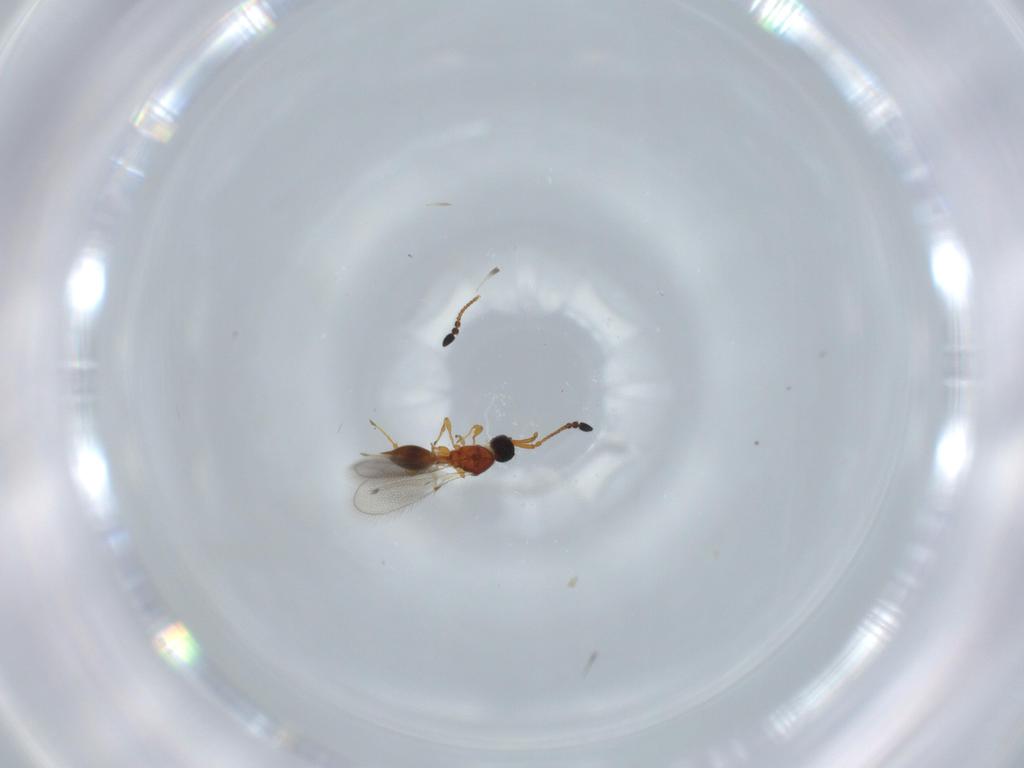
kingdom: Animalia
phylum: Arthropoda
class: Insecta
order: Hymenoptera
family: Diapriidae
